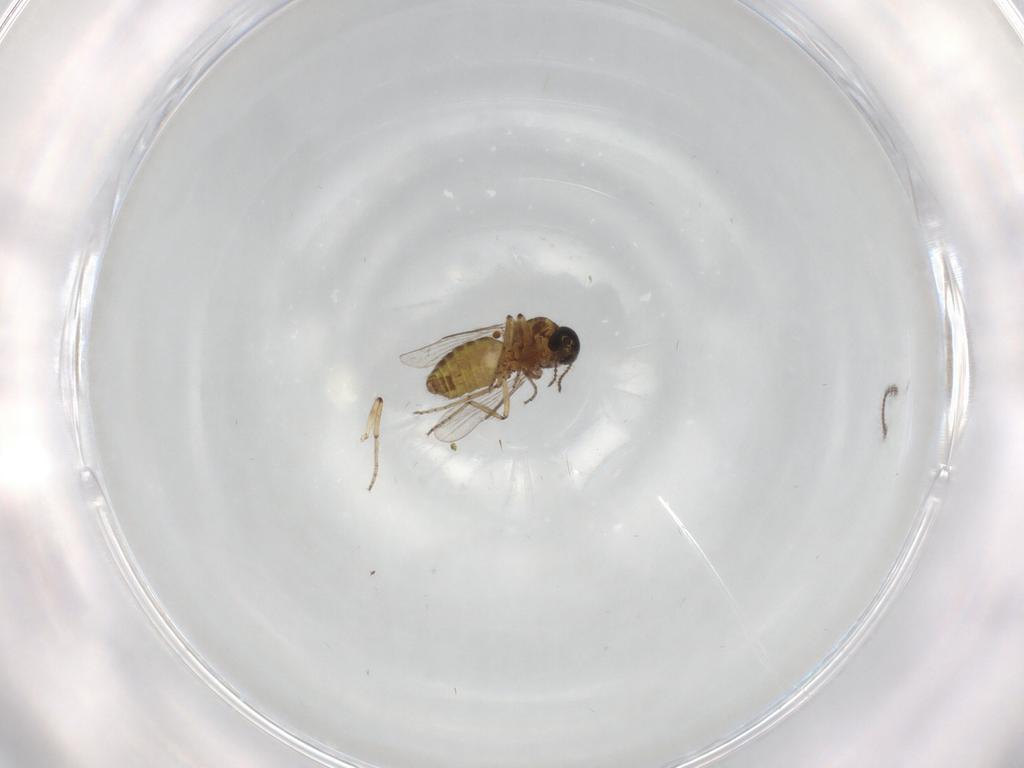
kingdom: Animalia
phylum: Arthropoda
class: Insecta
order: Diptera
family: Ceratopogonidae
